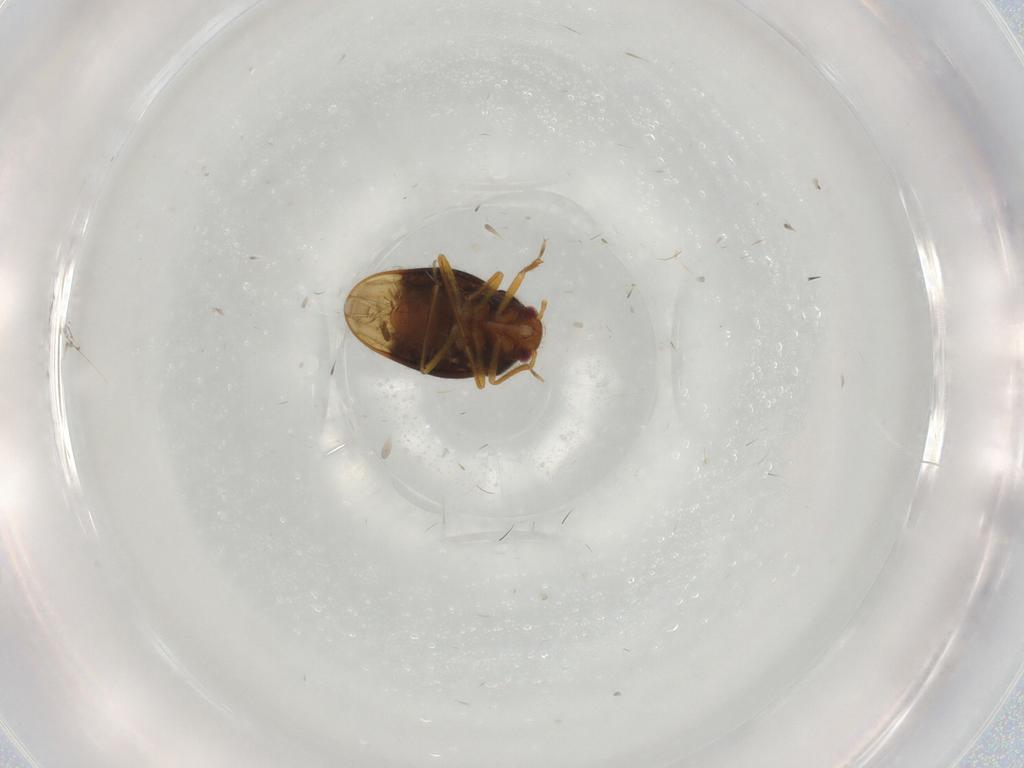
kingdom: Animalia
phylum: Arthropoda
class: Insecta
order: Hemiptera
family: Schizopteridae
